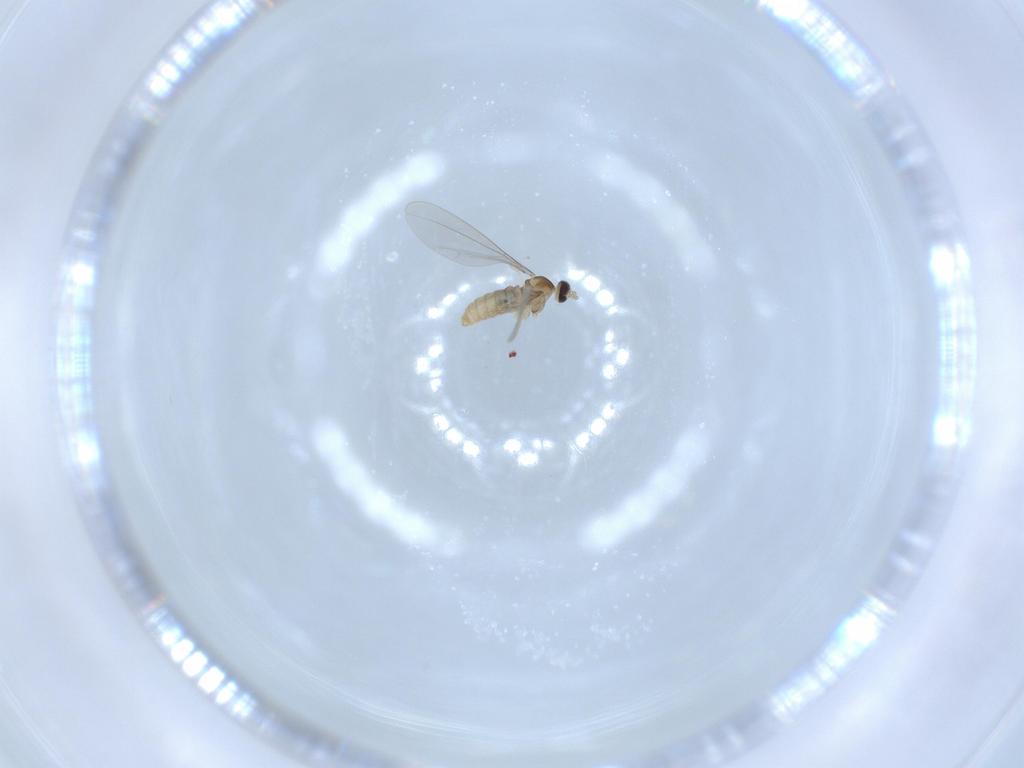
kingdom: Animalia
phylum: Arthropoda
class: Insecta
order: Diptera
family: Cecidomyiidae
